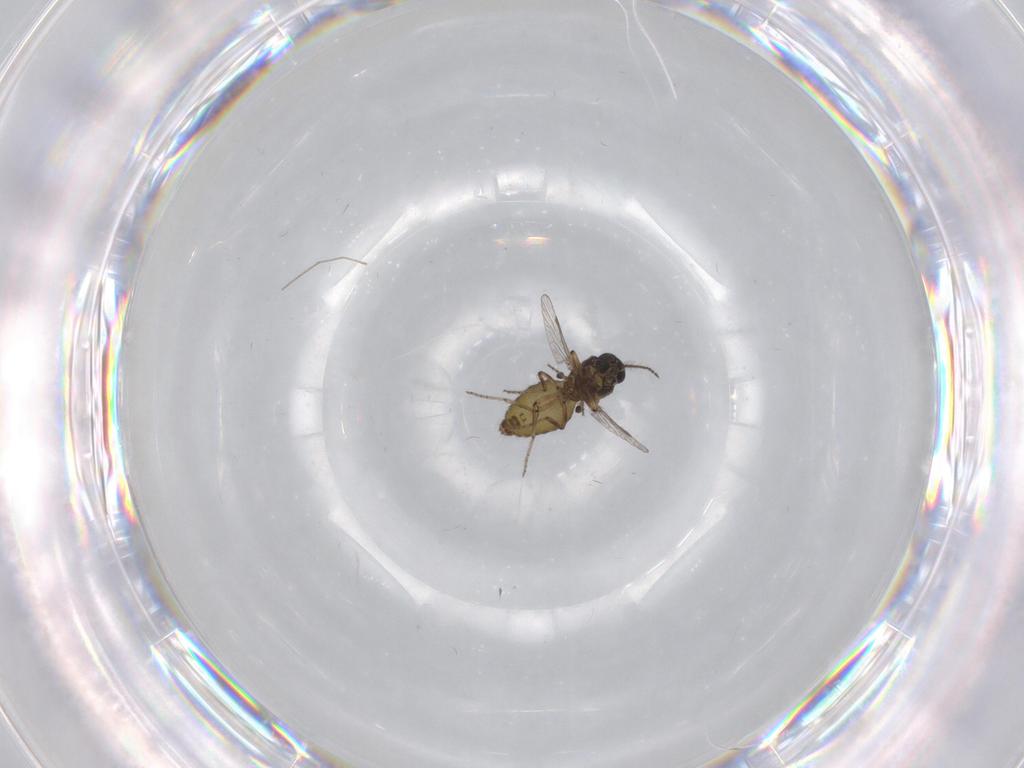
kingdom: Animalia
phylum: Arthropoda
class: Insecta
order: Diptera
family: Ceratopogonidae
